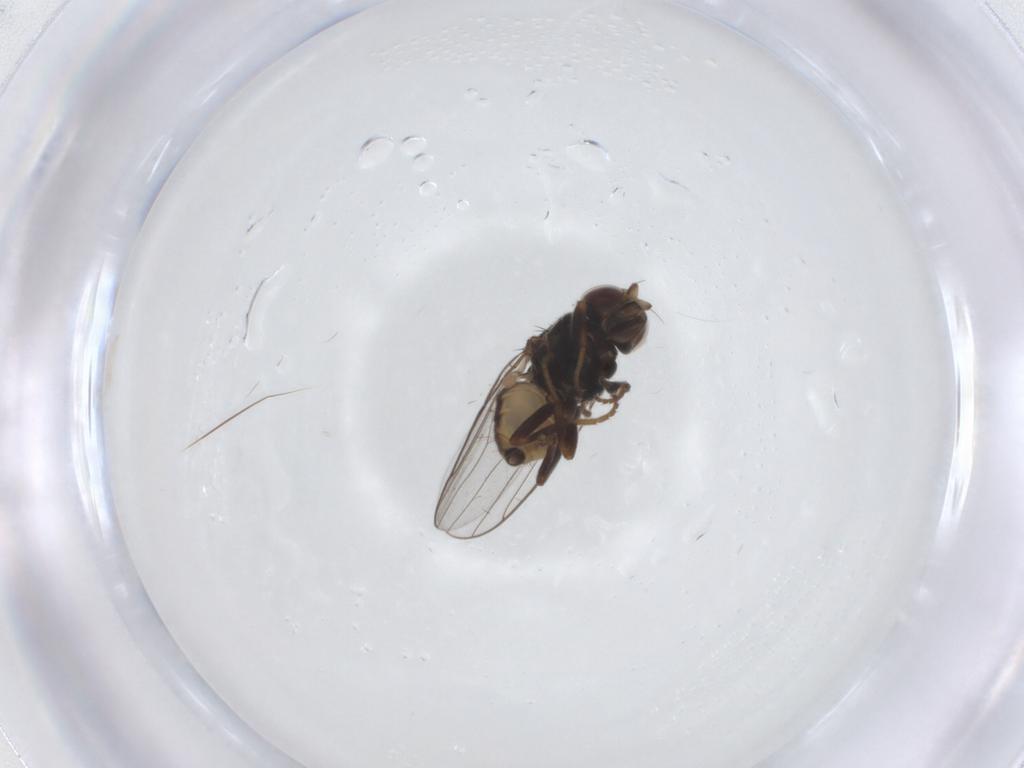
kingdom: Animalia
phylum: Arthropoda
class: Insecta
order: Diptera
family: Chloropidae
